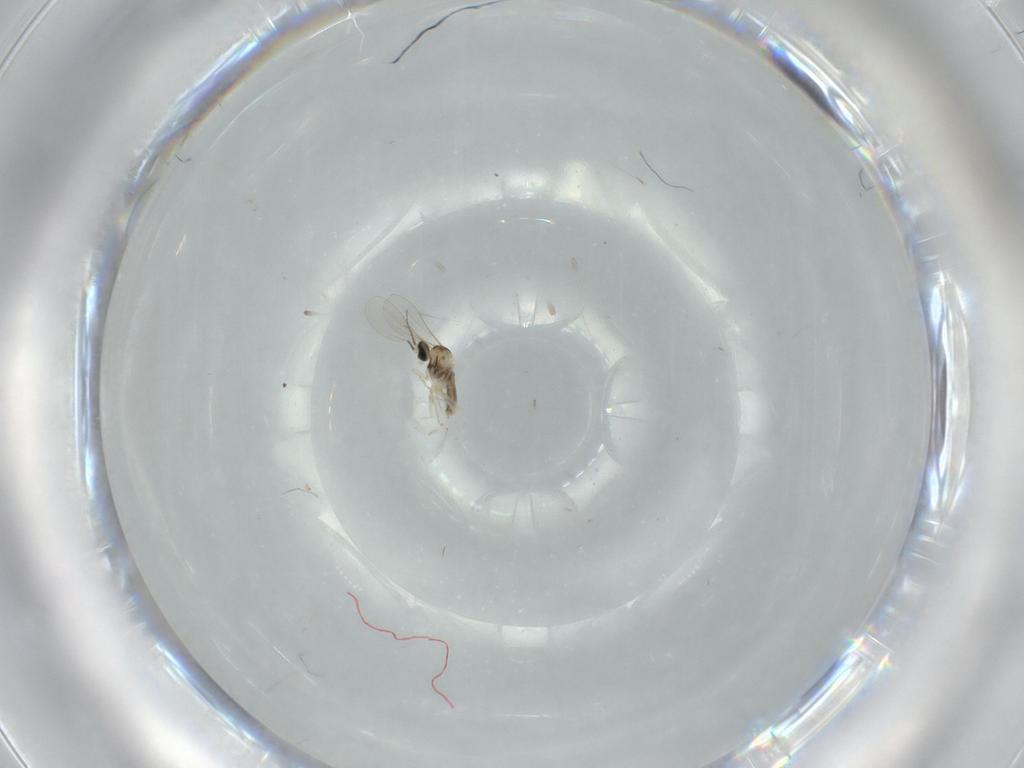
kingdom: Animalia
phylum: Arthropoda
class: Insecta
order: Diptera
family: Cecidomyiidae
